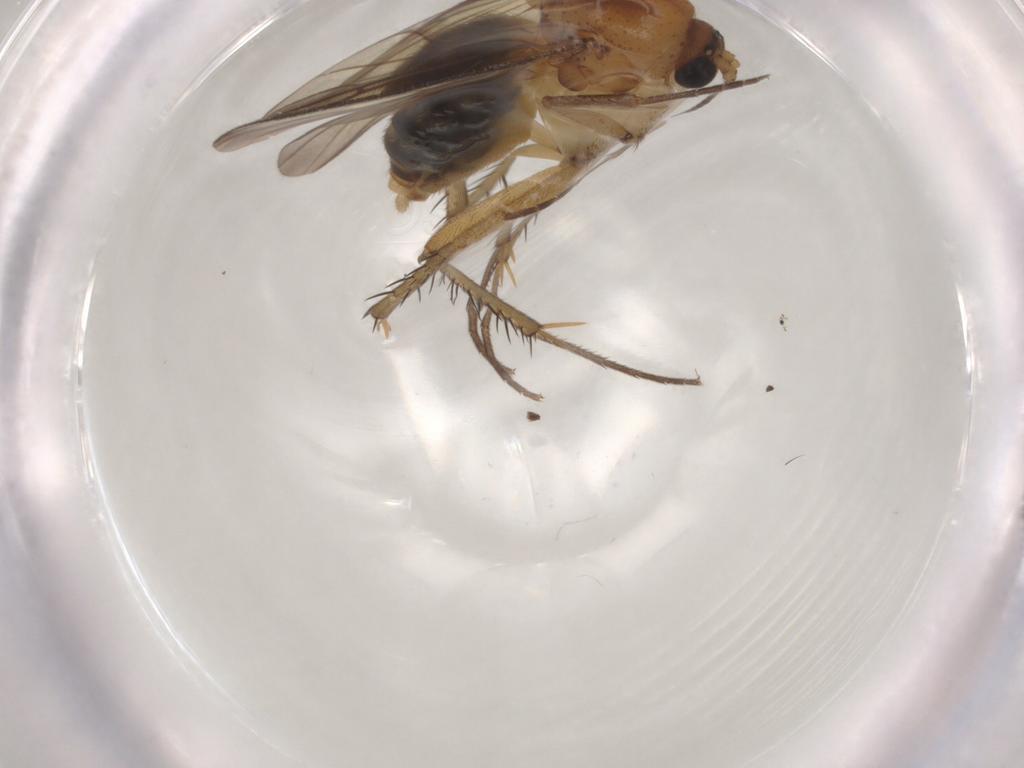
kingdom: Animalia
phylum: Arthropoda
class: Insecta
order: Diptera
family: Mycetophilidae
